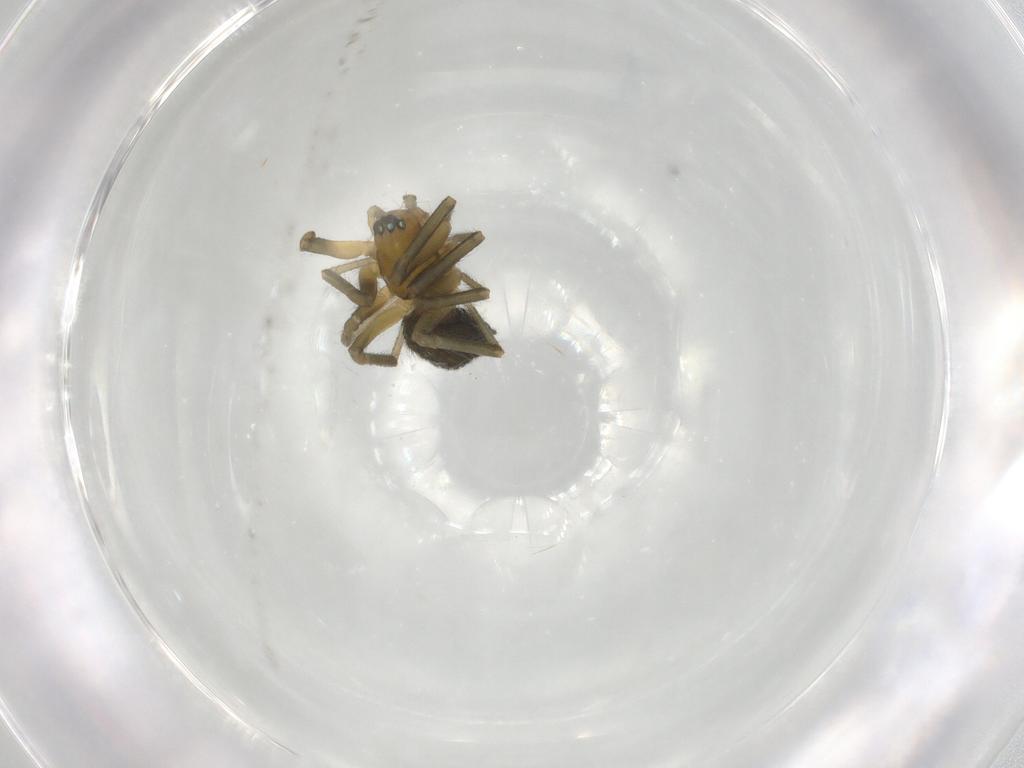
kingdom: Animalia
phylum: Arthropoda
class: Arachnida
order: Araneae
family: Linyphiidae
